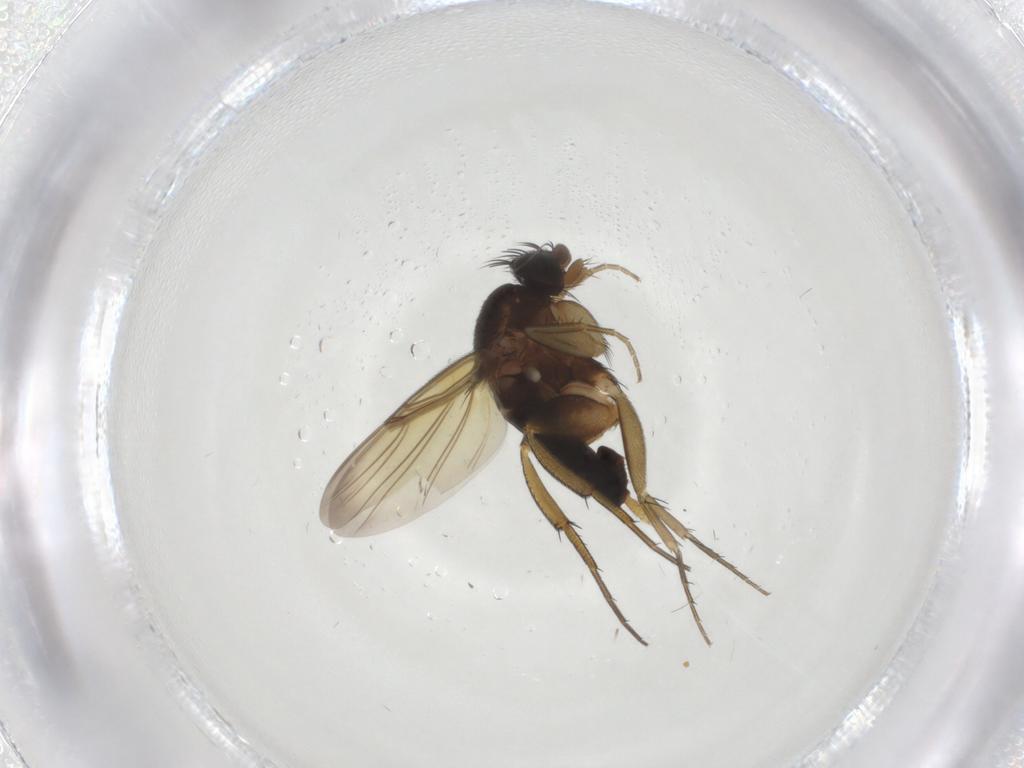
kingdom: Animalia
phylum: Arthropoda
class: Insecta
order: Diptera
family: Phoridae
